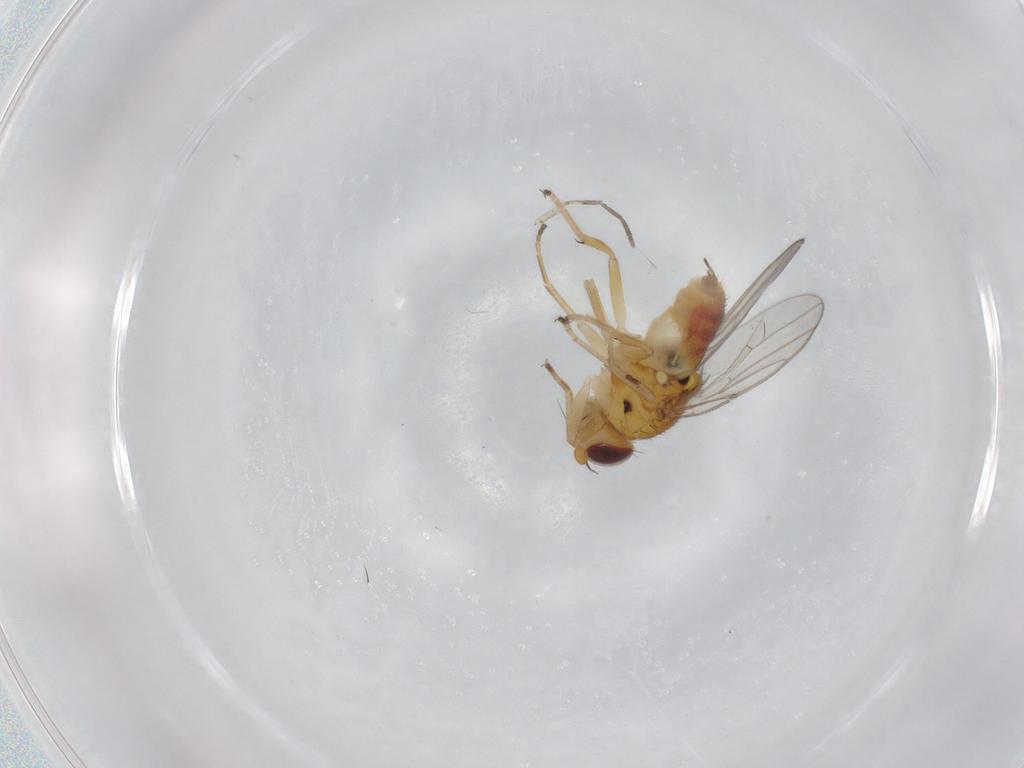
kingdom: Animalia
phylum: Arthropoda
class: Insecta
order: Diptera
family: Chloropidae
